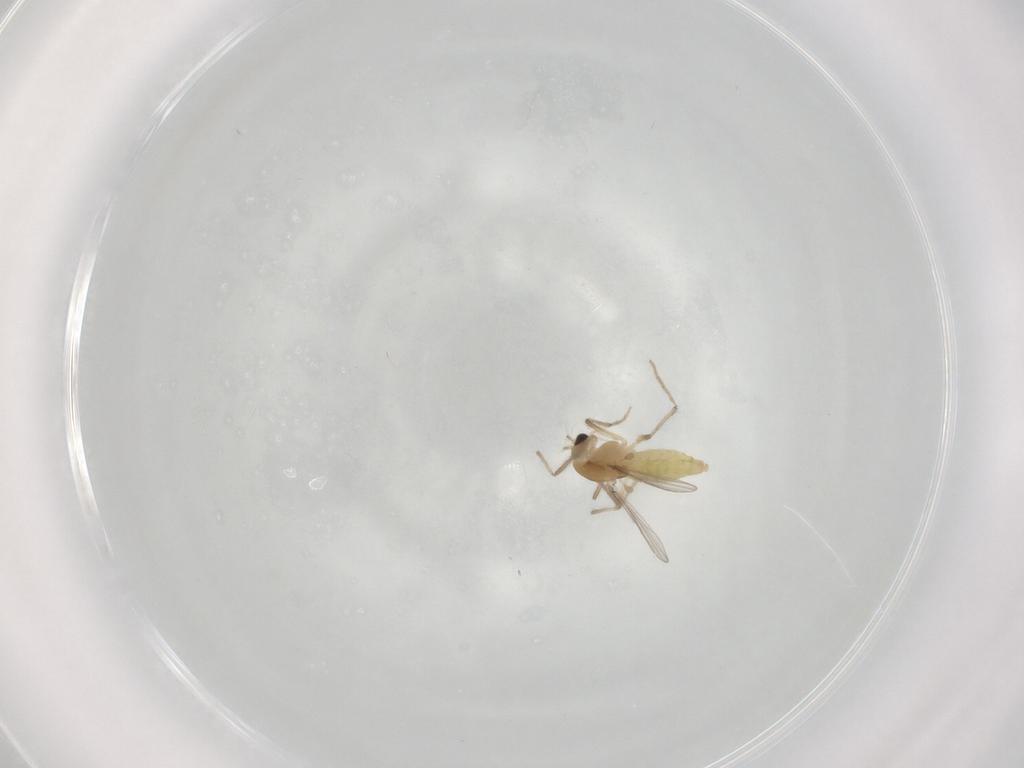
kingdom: Animalia
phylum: Arthropoda
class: Insecta
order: Diptera
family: Chironomidae
